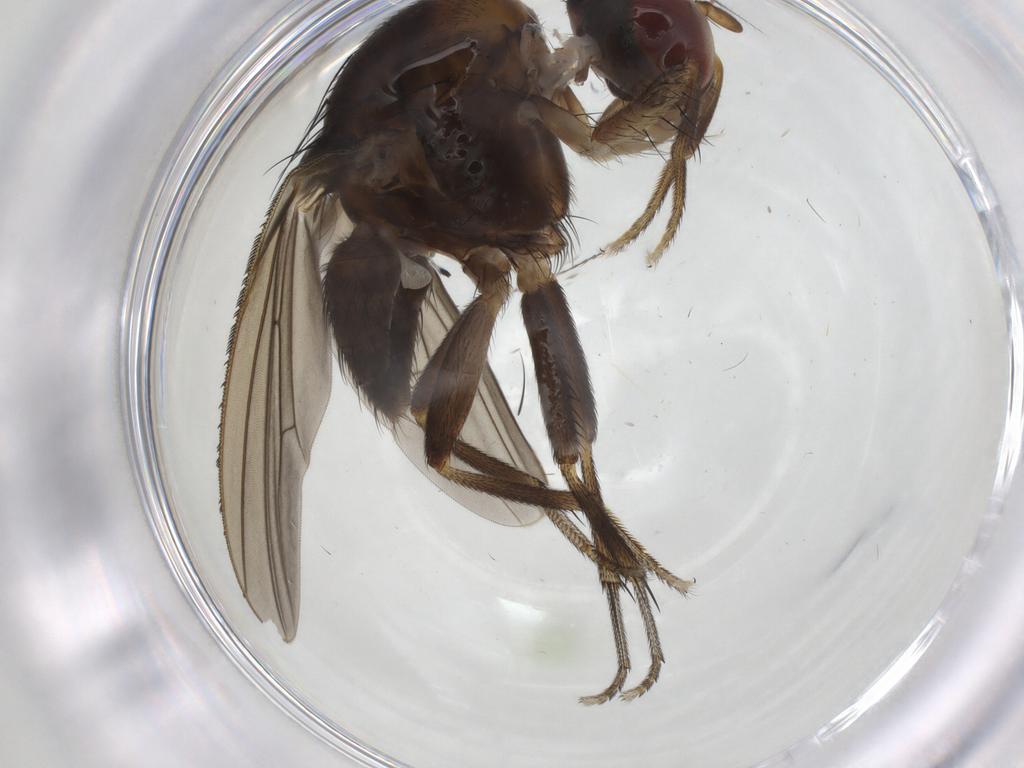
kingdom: Animalia
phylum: Arthropoda
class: Insecta
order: Diptera
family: Cecidomyiidae
